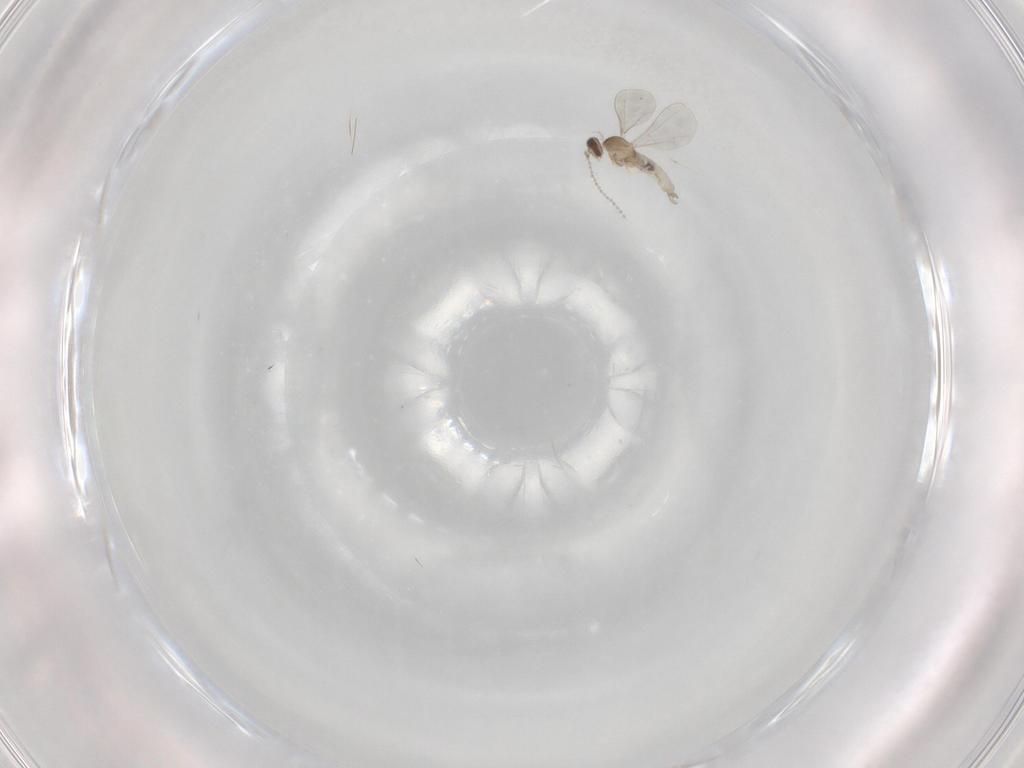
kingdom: Animalia
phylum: Arthropoda
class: Insecta
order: Diptera
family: Cecidomyiidae
